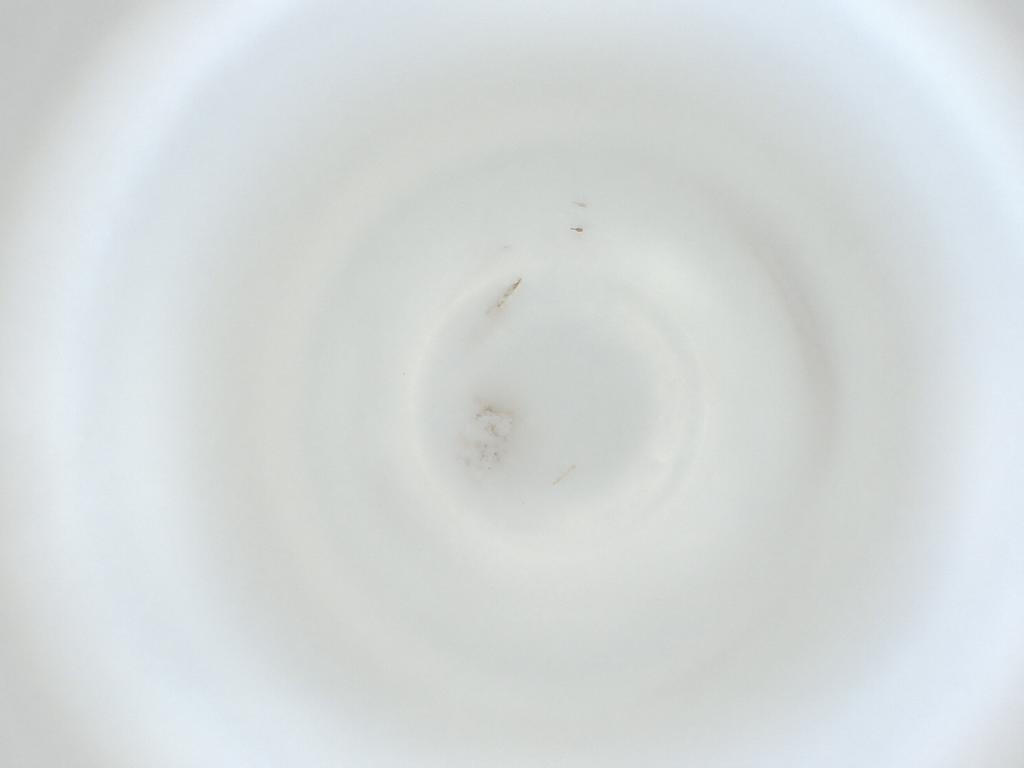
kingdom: Animalia
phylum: Arthropoda
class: Insecta
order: Diptera
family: Cecidomyiidae
